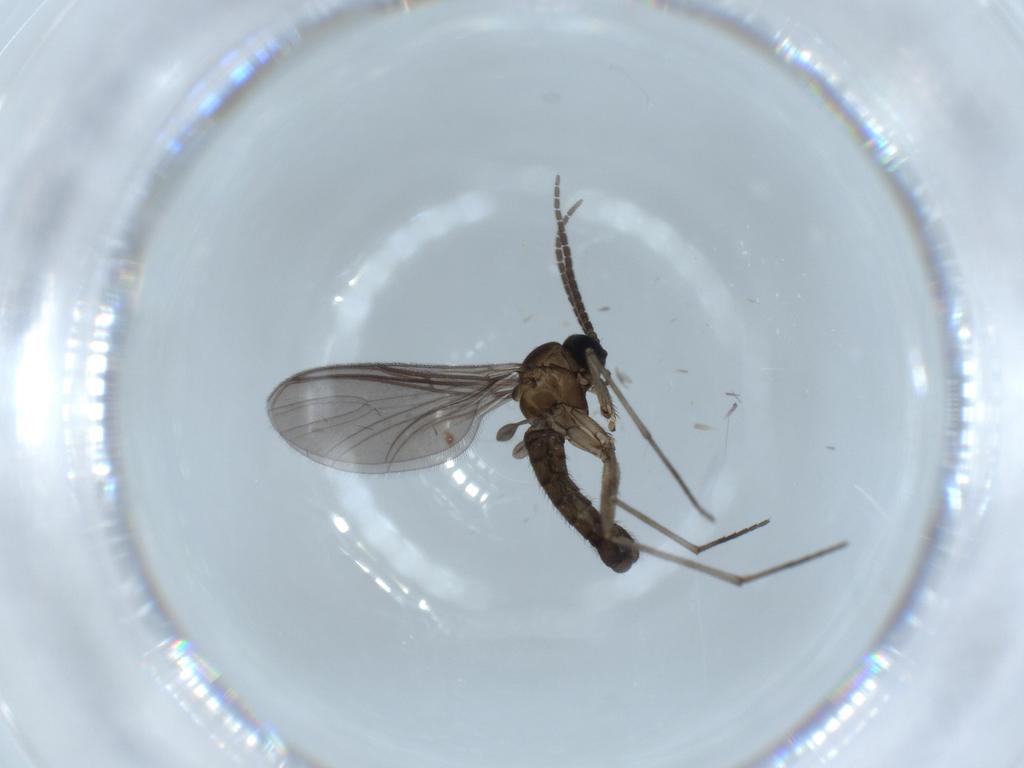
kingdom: Animalia
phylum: Arthropoda
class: Insecta
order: Diptera
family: Sciaridae
